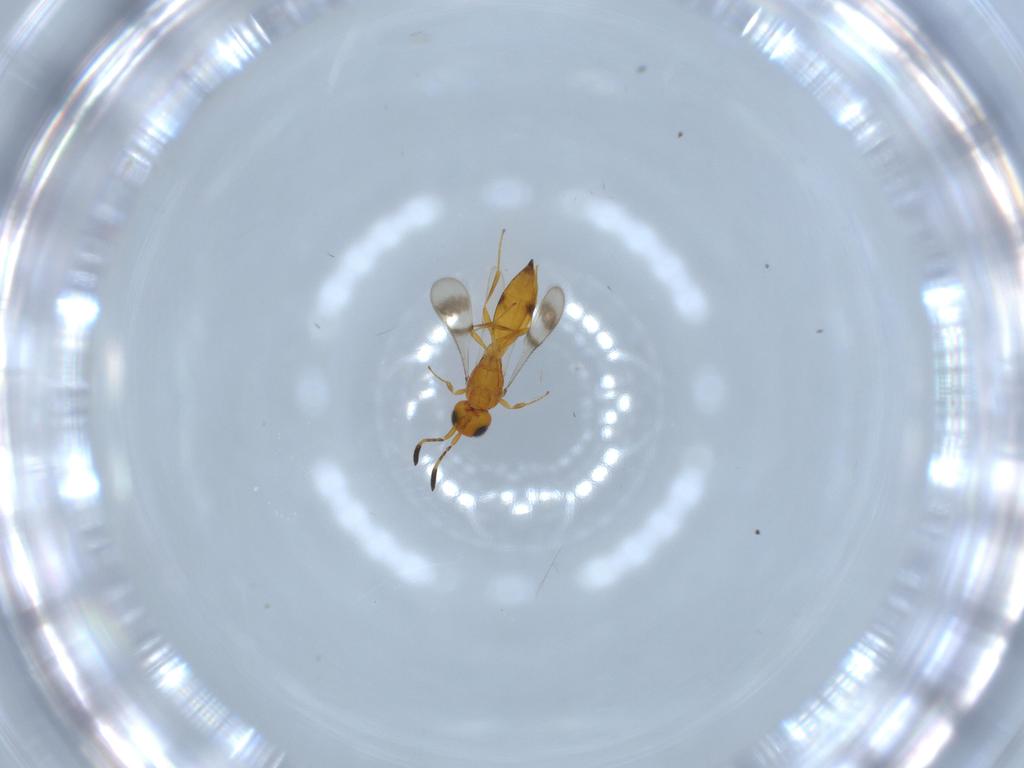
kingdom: Animalia
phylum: Arthropoda
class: Insecta
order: Hymenoptera
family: Scelionidae
